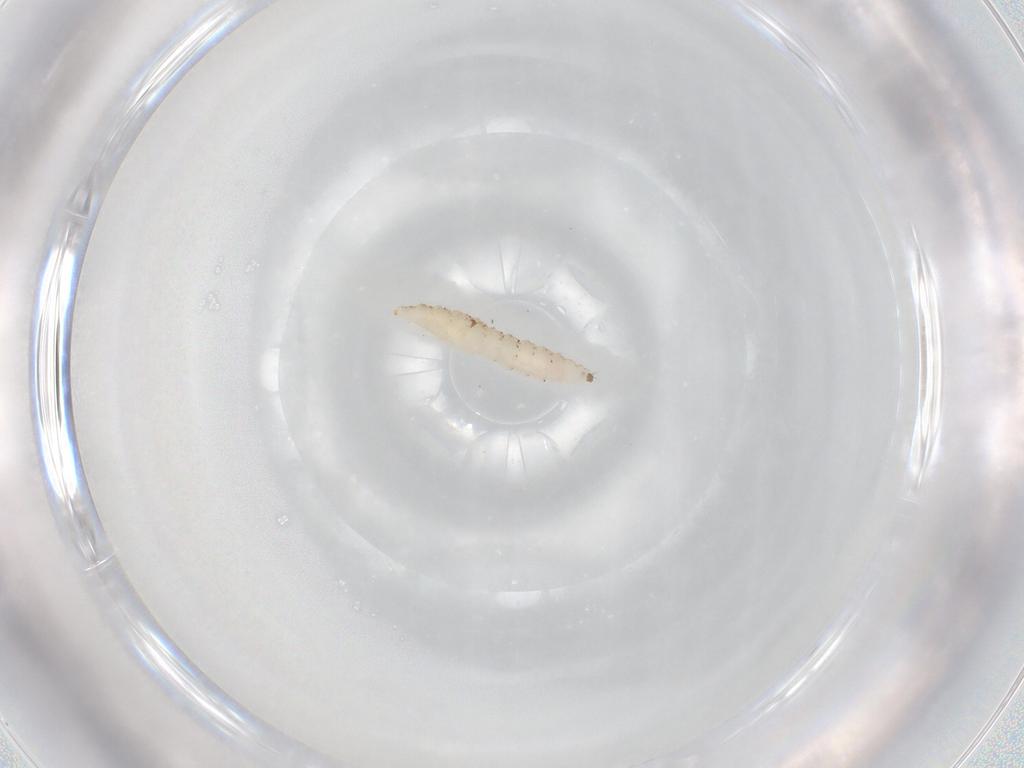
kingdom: Animalia
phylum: Arthropoda
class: Insecta
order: Diptera
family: Cecidomyiidae
